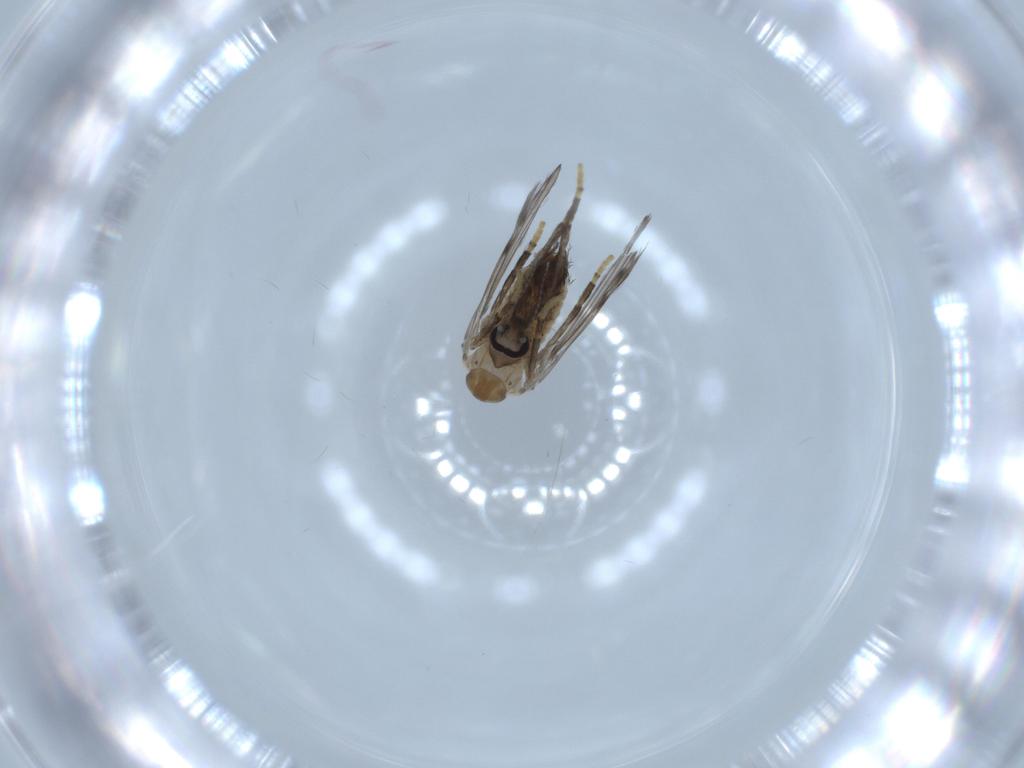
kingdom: Animalia
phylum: Arthropoda
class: Insecta
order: Diptera
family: Psychodidae
